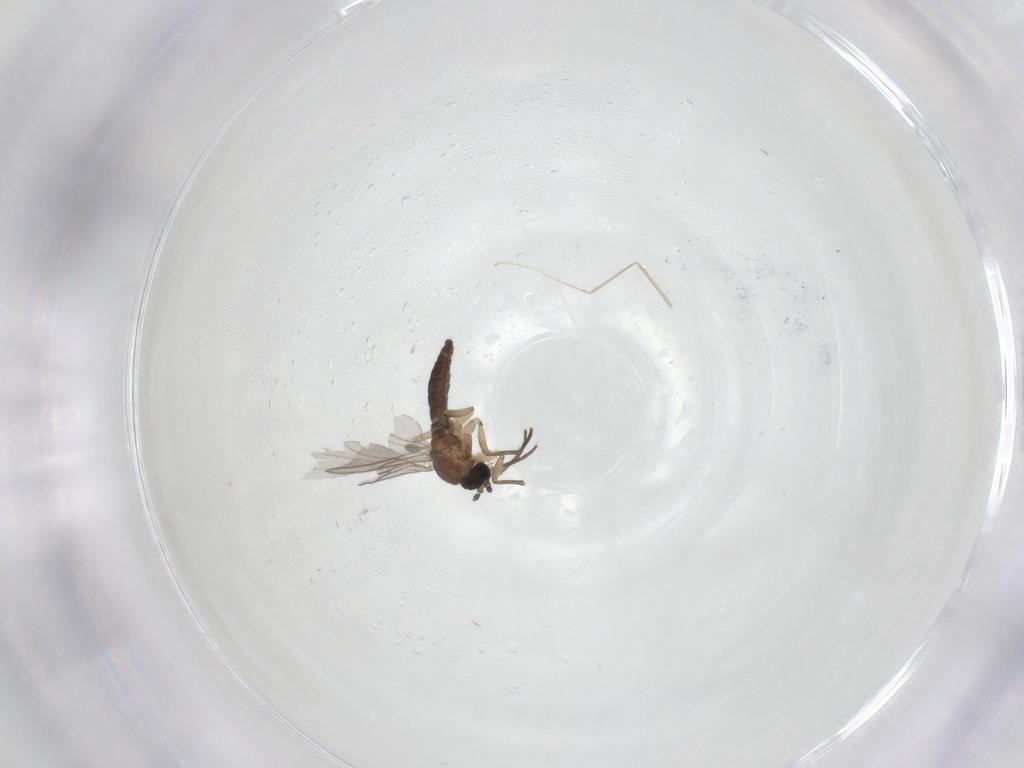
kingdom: Animalia
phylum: Arthropoda
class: Insecta
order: Diptera
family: Sciaridae
